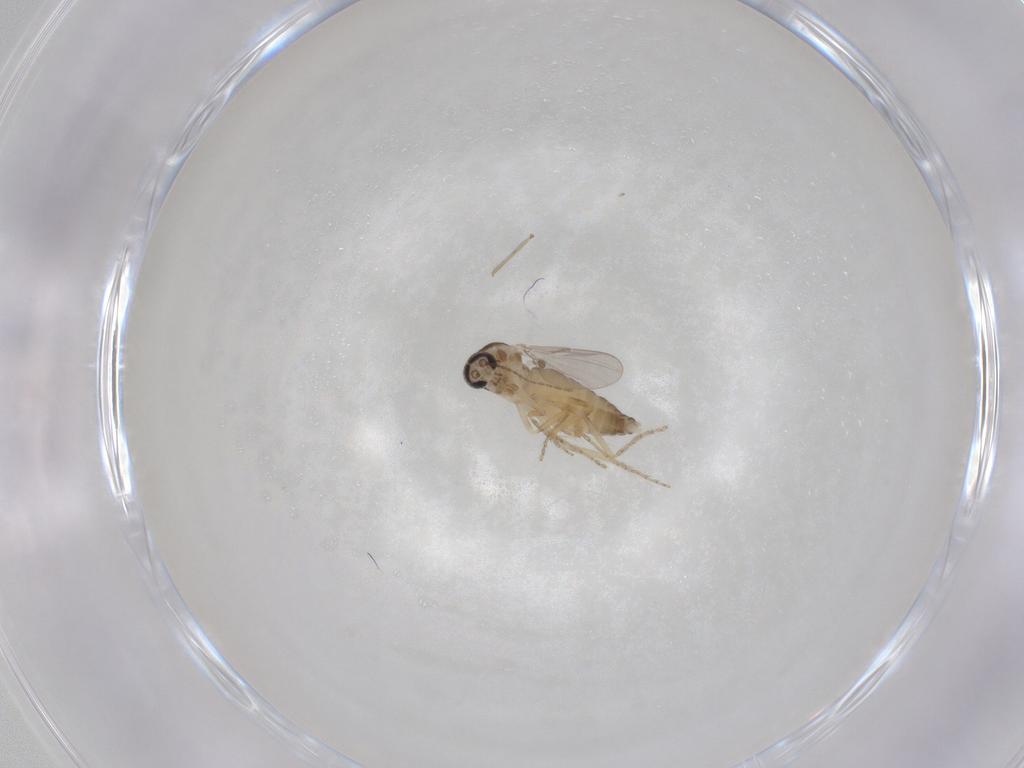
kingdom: Animalia
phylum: Arthropoda
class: Insecta
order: Diptera
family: Ceratopogonidae
